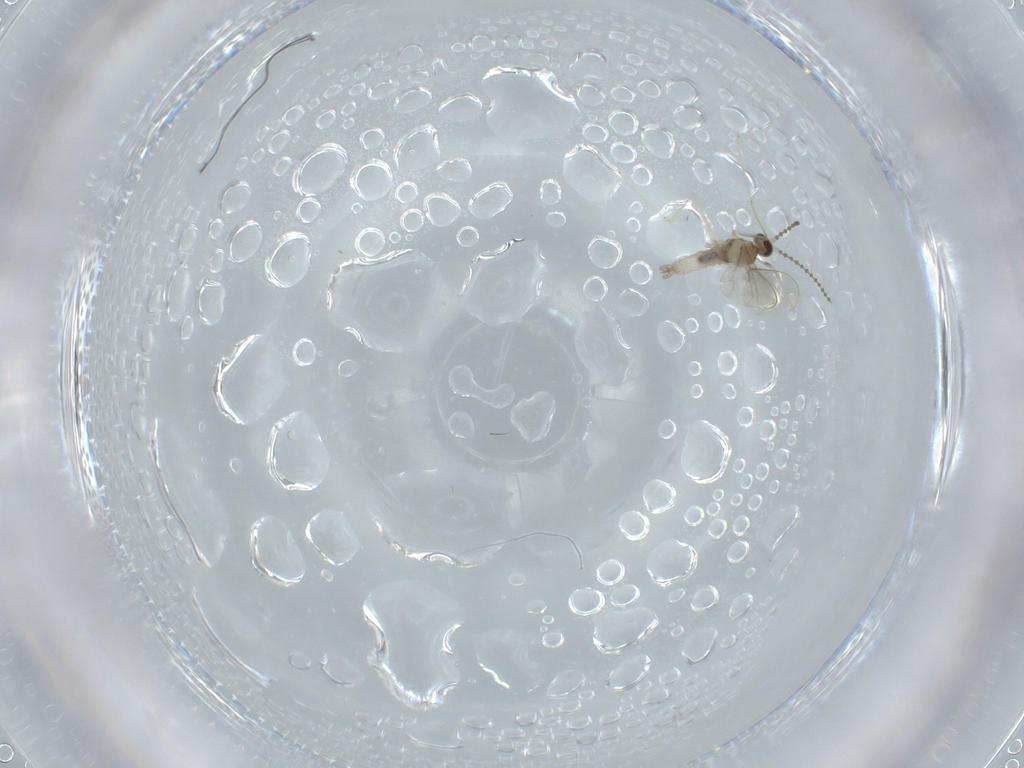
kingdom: Animalia
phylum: Arthropoda
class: Insecta
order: Diptera
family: Cecidomyiidae
